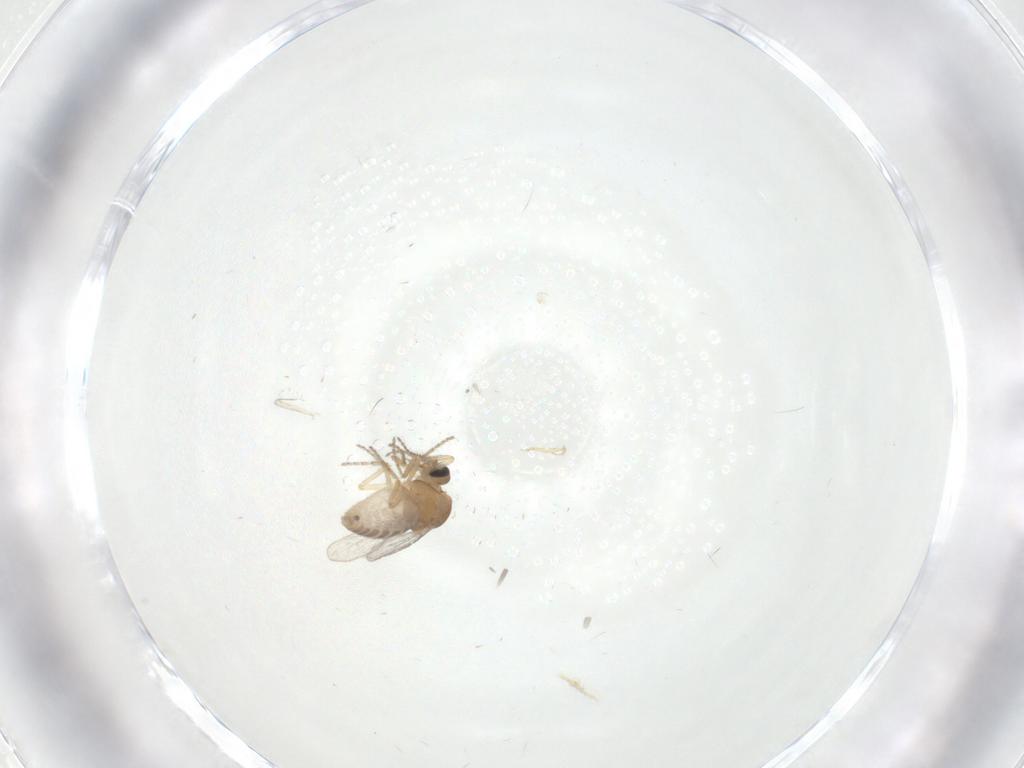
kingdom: Animalia
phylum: Arthropoda
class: Insecta
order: Diptera
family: Ceratopogonidae
